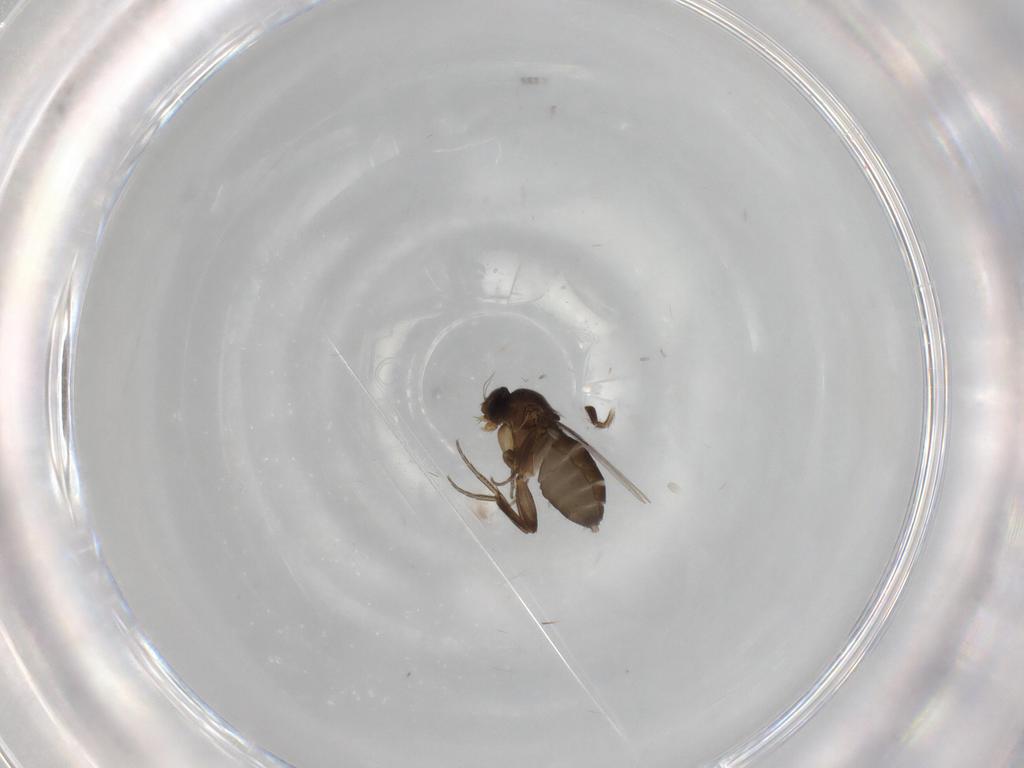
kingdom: Animalia
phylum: Arthropoda
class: Insecta
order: Diptera
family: Phoridae
